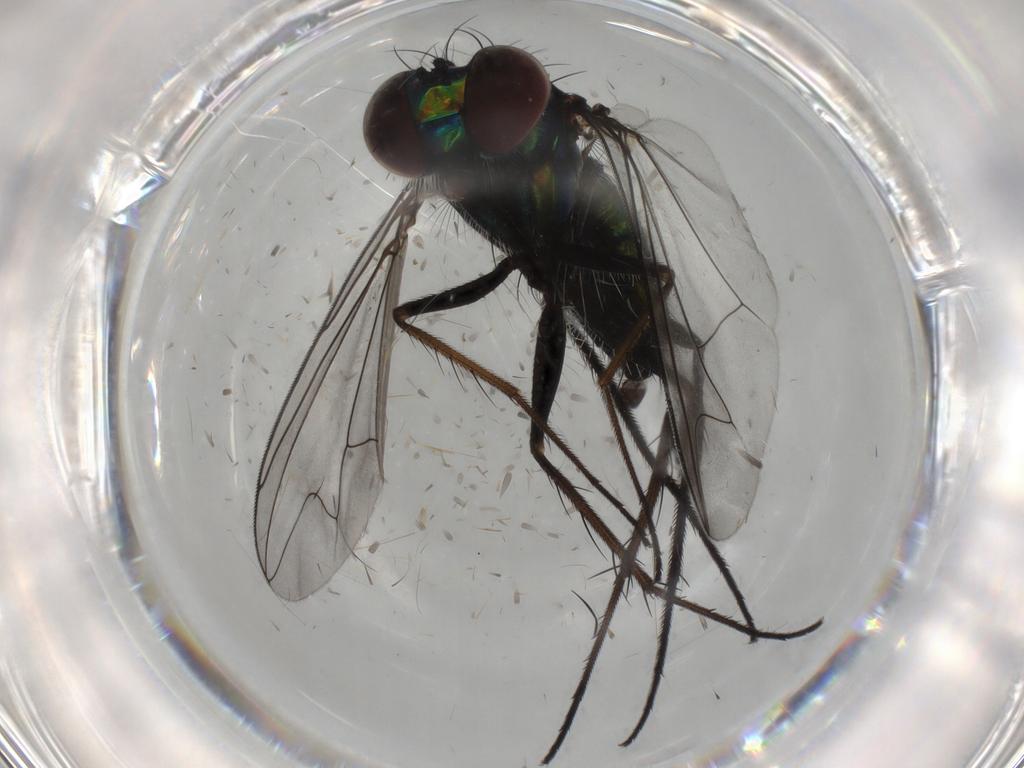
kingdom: Animalia
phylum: Arthropoda
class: Insecta
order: Diptera
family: Dolichopodidae
